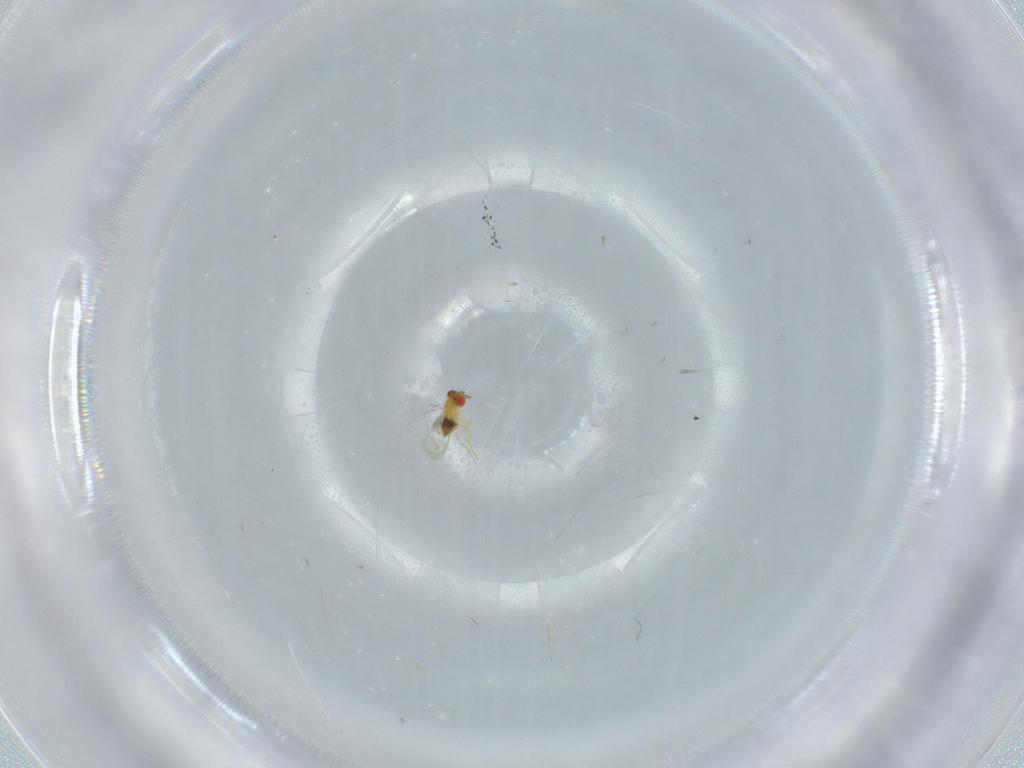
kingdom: Animalia
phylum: Arthropoda
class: Insecta
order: Hymenoptera
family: Trichogrammatidae
